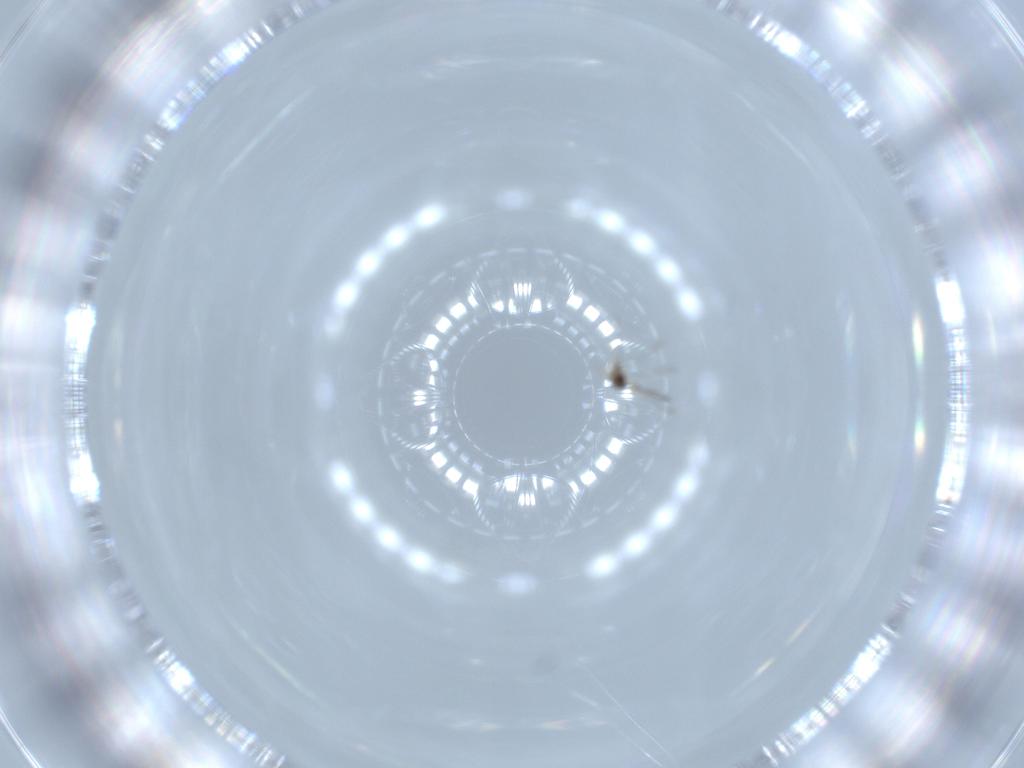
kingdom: Animalia
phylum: Arthropoda
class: Insecta
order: Hymenoptera
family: Mymaridae
